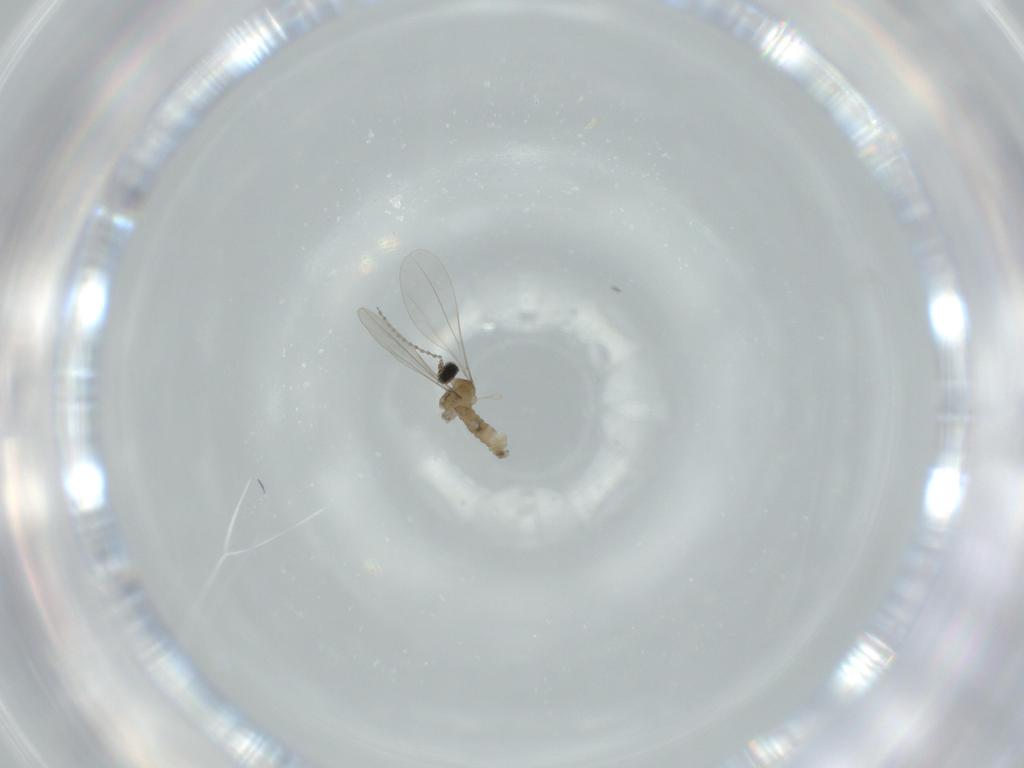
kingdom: Animalia
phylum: Arthropoda
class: Insecta
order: Diptera
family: Cecidomyiidae
